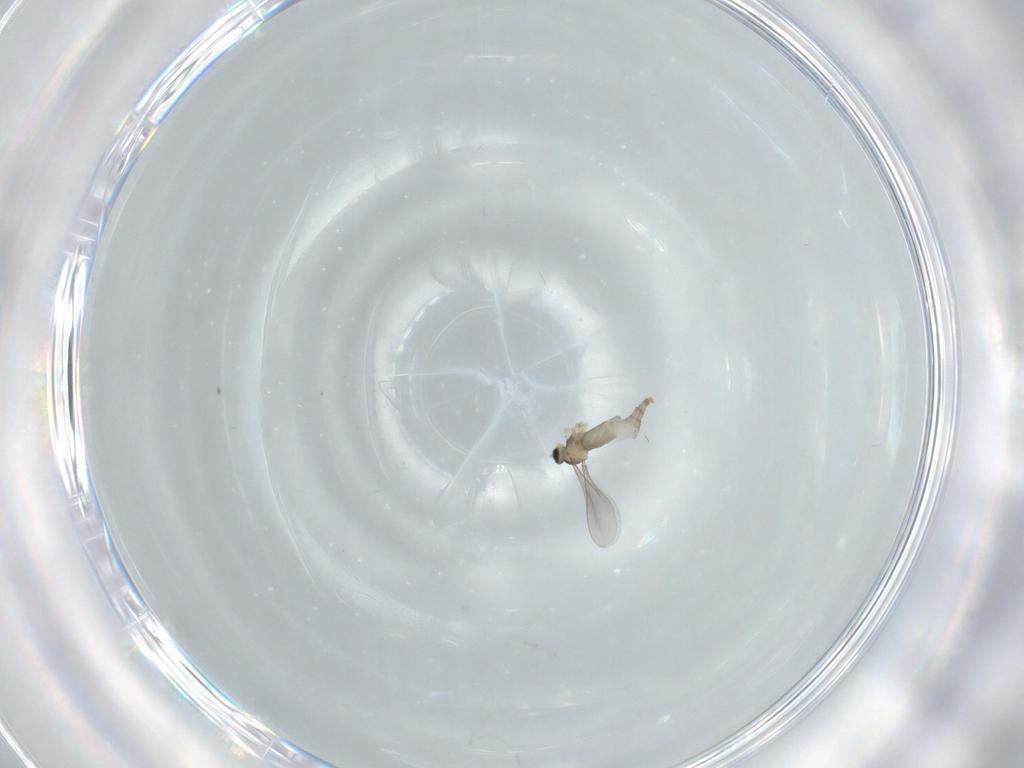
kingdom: Animalia
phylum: Arthropoda
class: Insecta
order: Diptera
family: Cecidomyiidae
